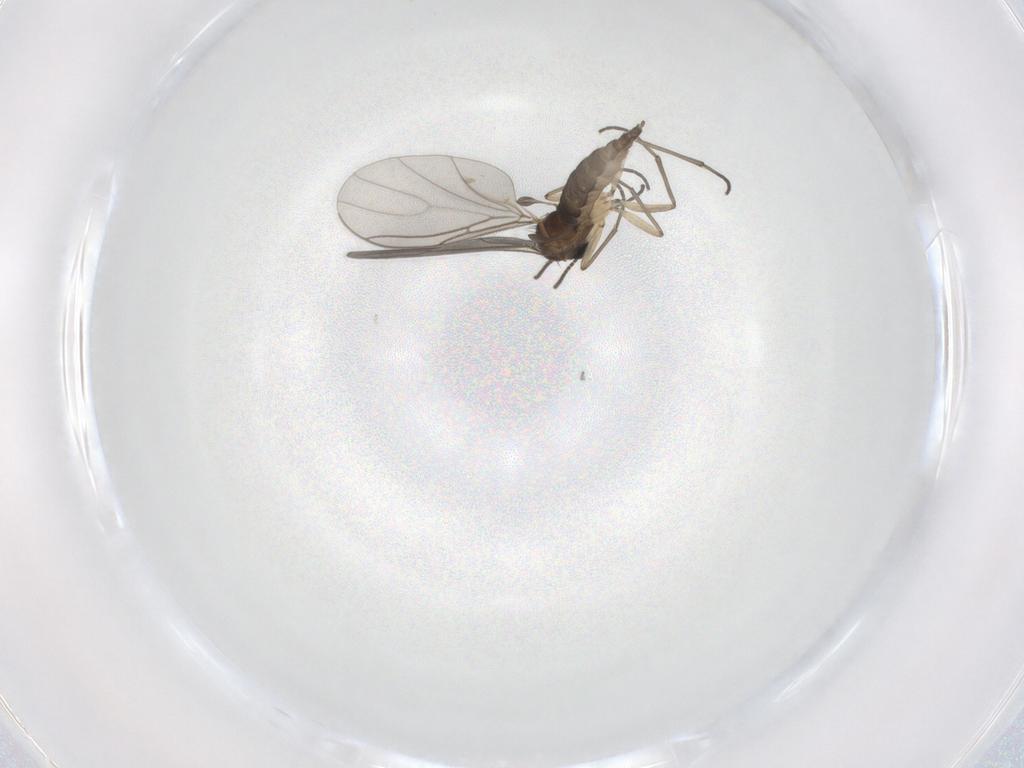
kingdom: Animalia
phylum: Arthropoda
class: Insecta
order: Diptera
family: Sciaridae
